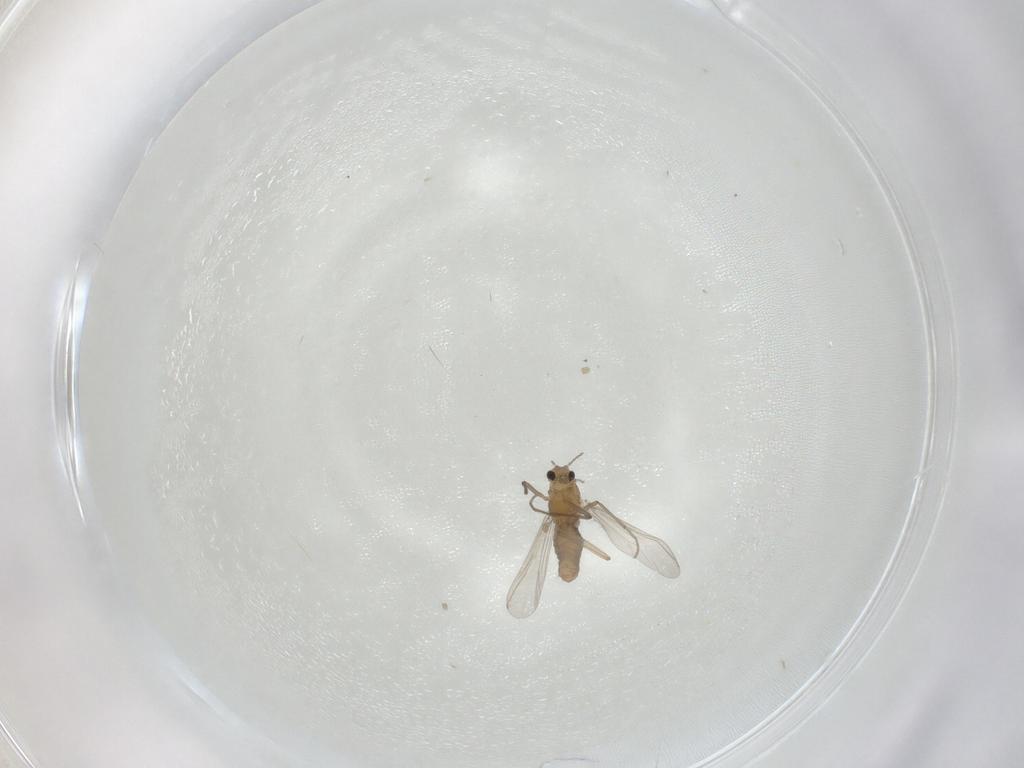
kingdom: Animalia
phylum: Arthropoda
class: Insecta
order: Diptera
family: Chironomidae
